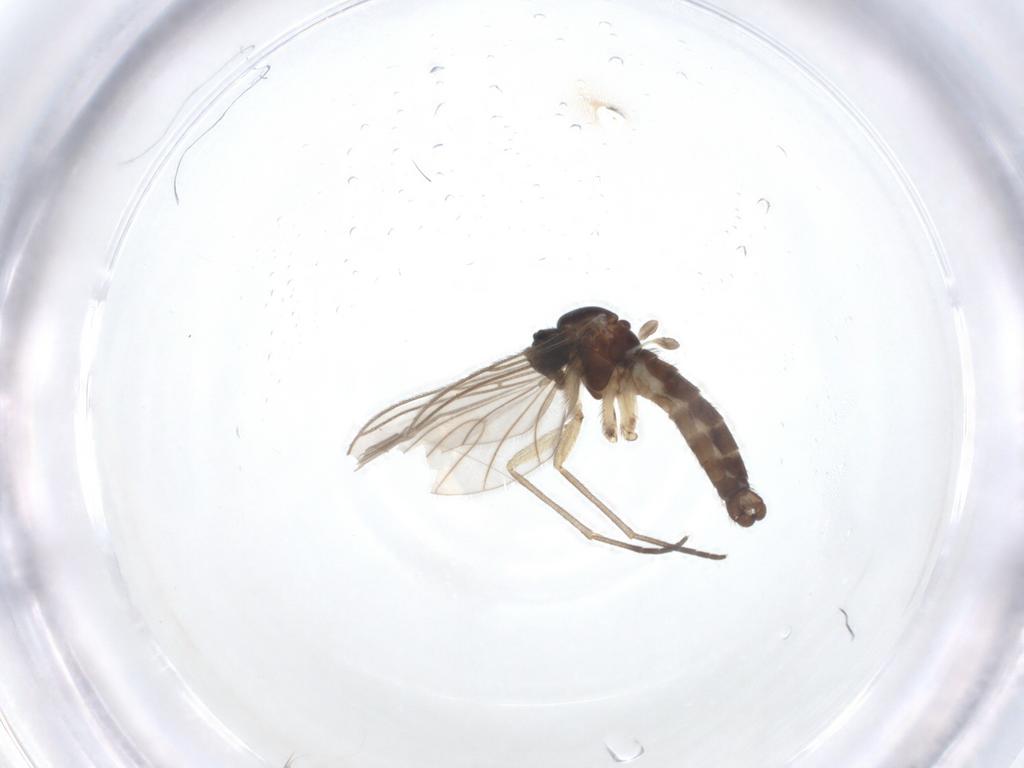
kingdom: Animalia
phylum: Arthropoda
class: Insecta
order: Diptera
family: Sciaridae
